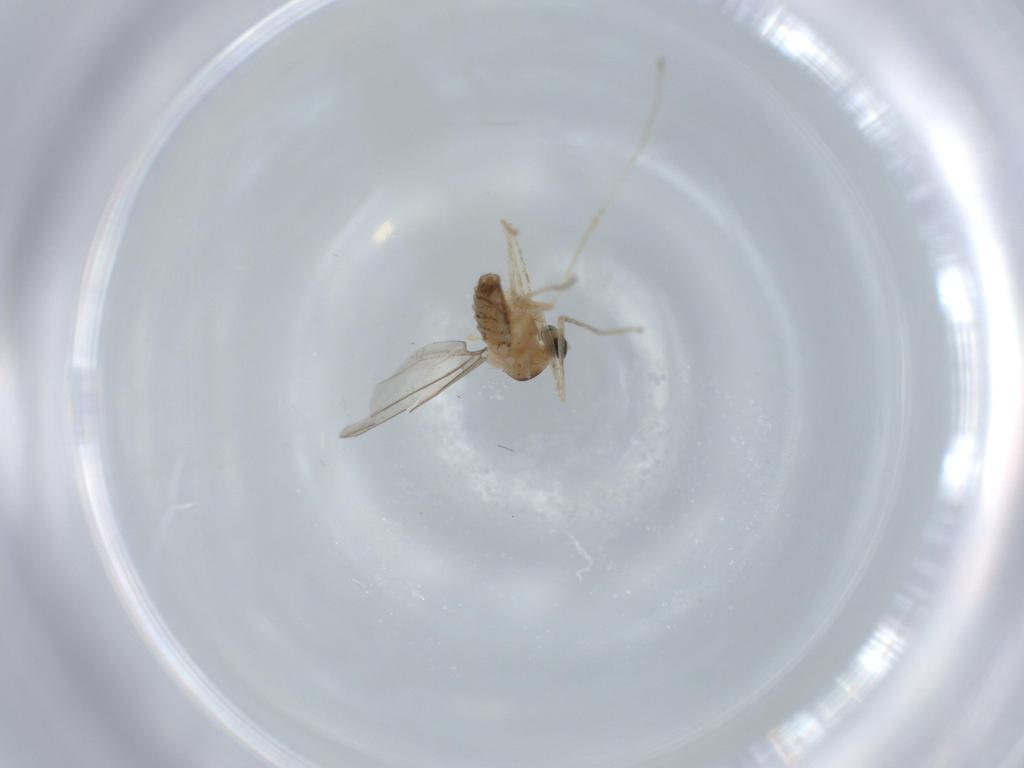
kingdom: Animalia
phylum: Arthropoda
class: Insecta
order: Diptera
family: Cecidomyiidae
